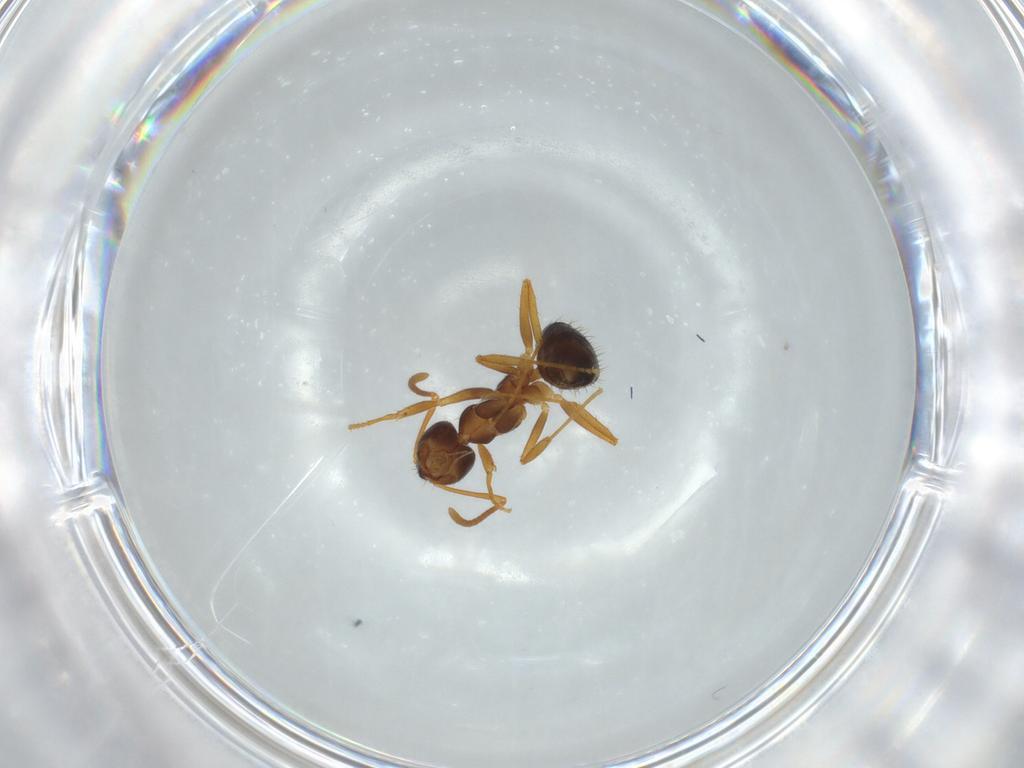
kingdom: Animalia
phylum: Arthropoda
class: Insecta
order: Hymenoptera
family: Formicidae
